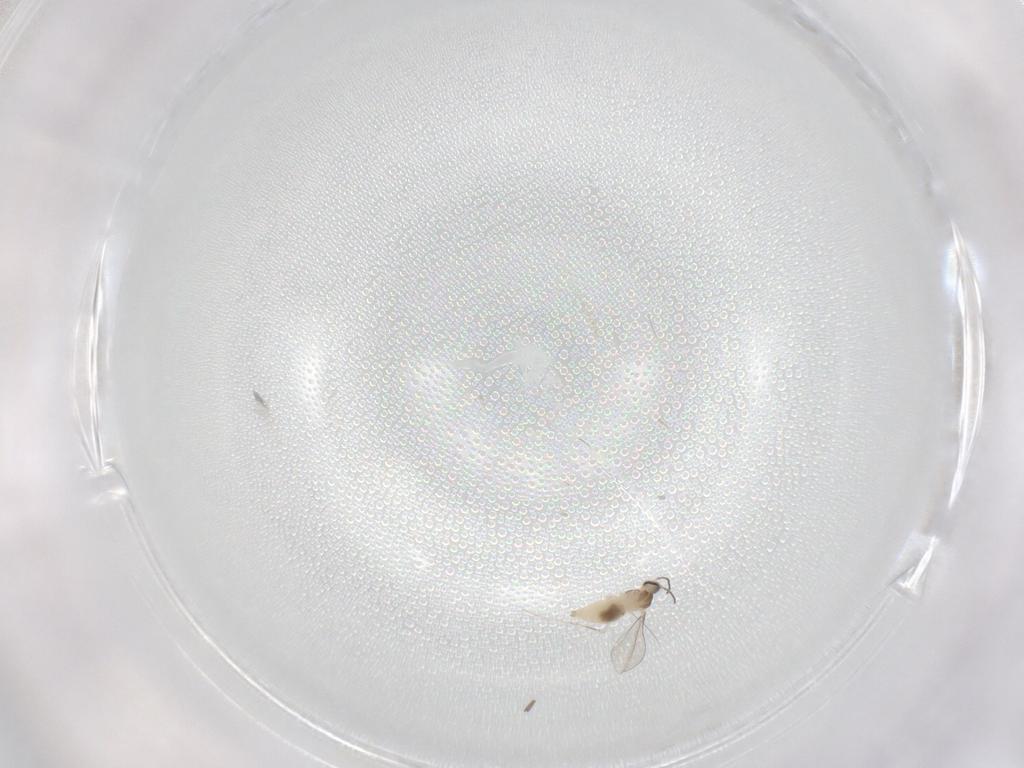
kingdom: Animalia
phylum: Arthropoda
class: Insecta
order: Diptera
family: Cecidomyiidae
